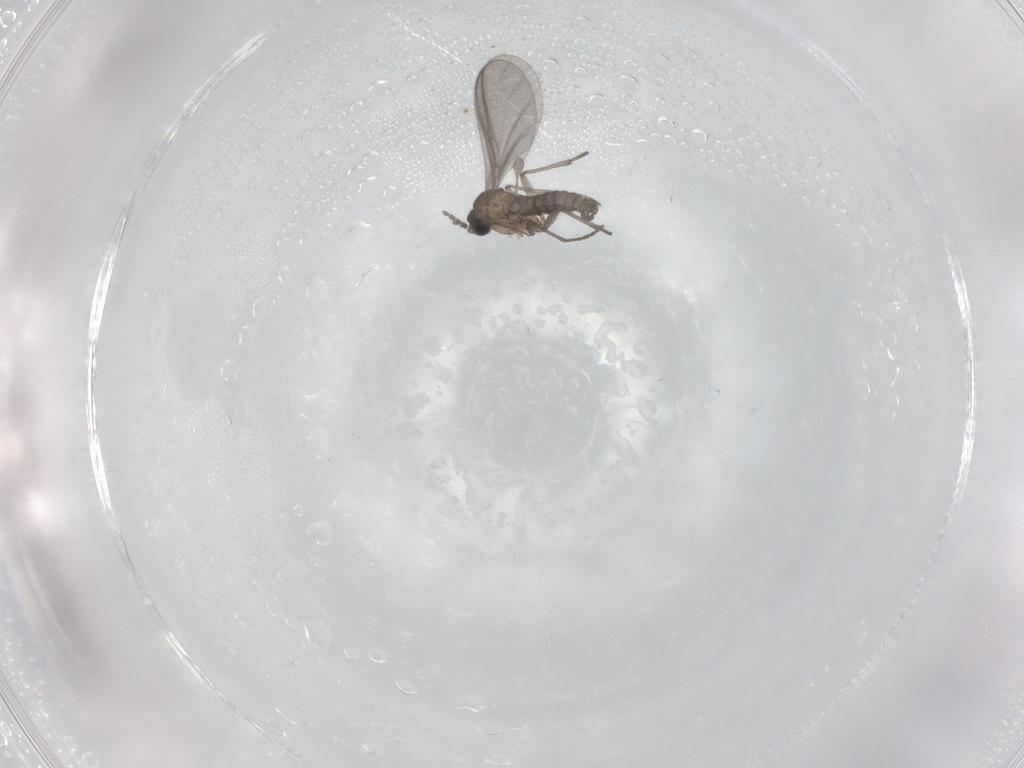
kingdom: Animalia
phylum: Arthropoda
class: Insecta
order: Diptera
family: Sciaridae
